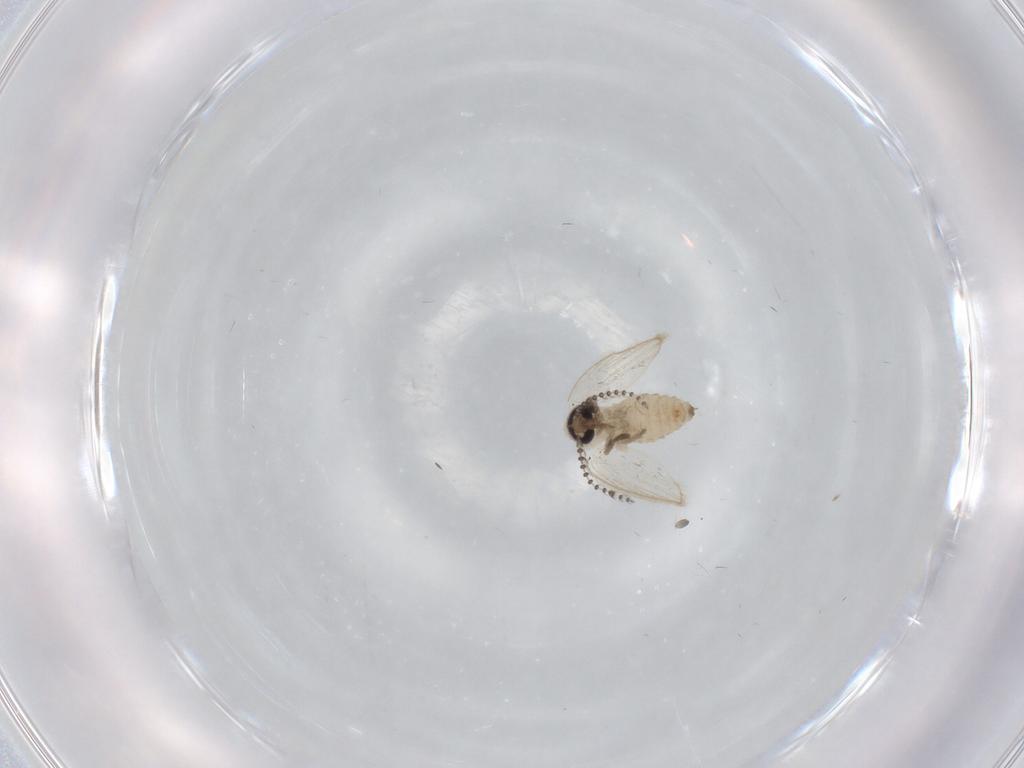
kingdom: Animalia
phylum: Arthropoda
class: Insecta
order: Diptera
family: Psychodidae
